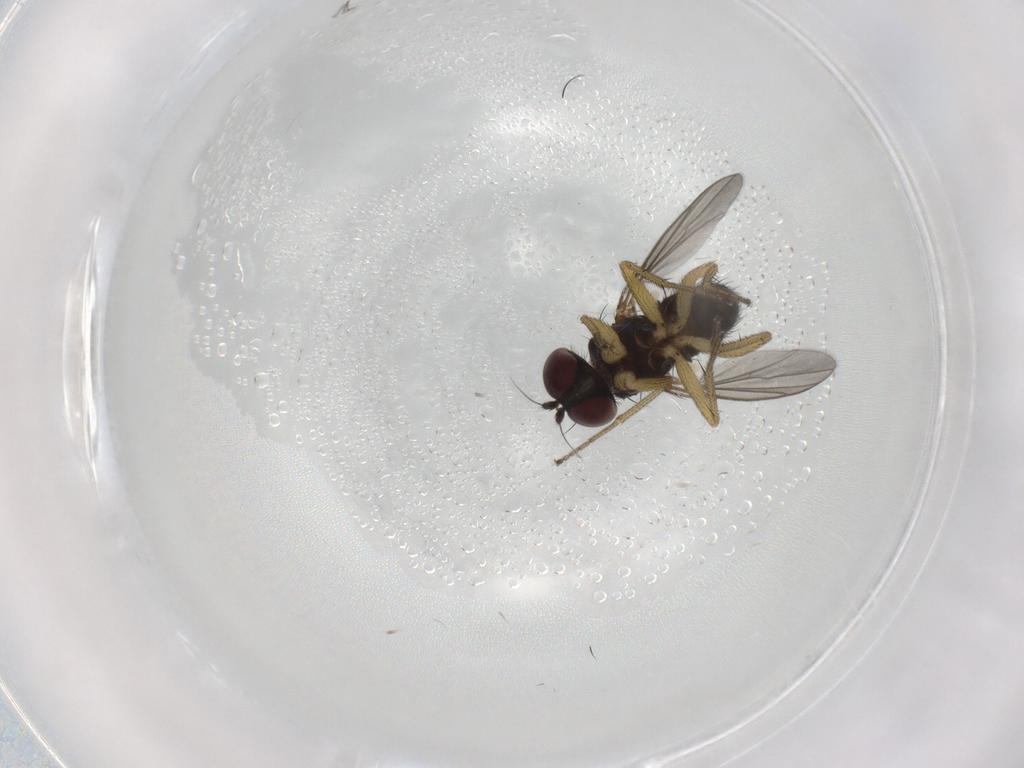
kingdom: Animalia
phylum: Arthropoda
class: Insecta
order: Diptera
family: Dolichopodidae
